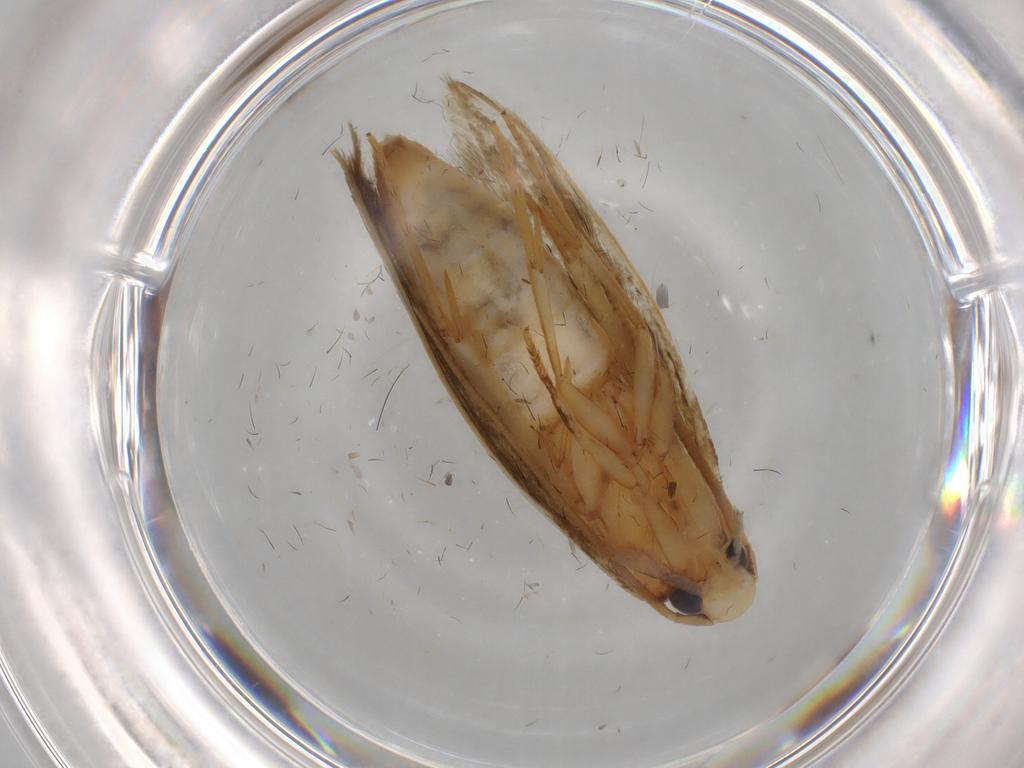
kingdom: Animalia
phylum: Arthropoda
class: Insecta
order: Lepidoptera
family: Tineidae
